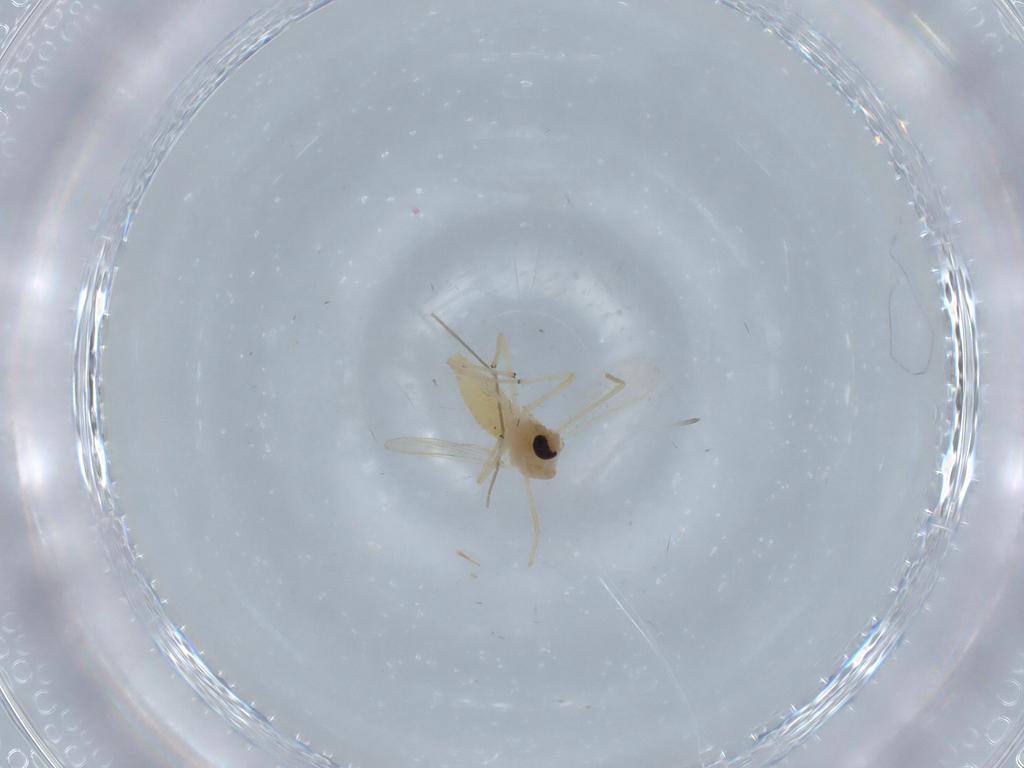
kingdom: Animalia
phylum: Arthropoda
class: Insecta
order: Diptera
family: Cecidomyiidae
